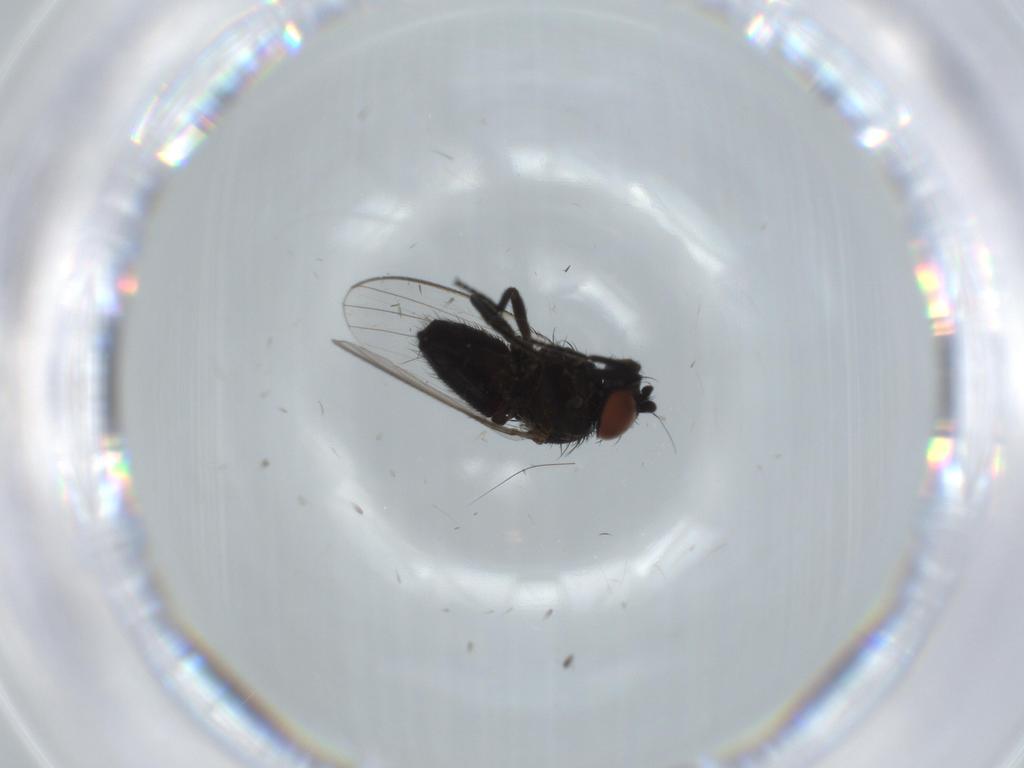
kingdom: Animalia
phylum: Arthropoda
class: Insecta
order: Diptera
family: Milichiidae
